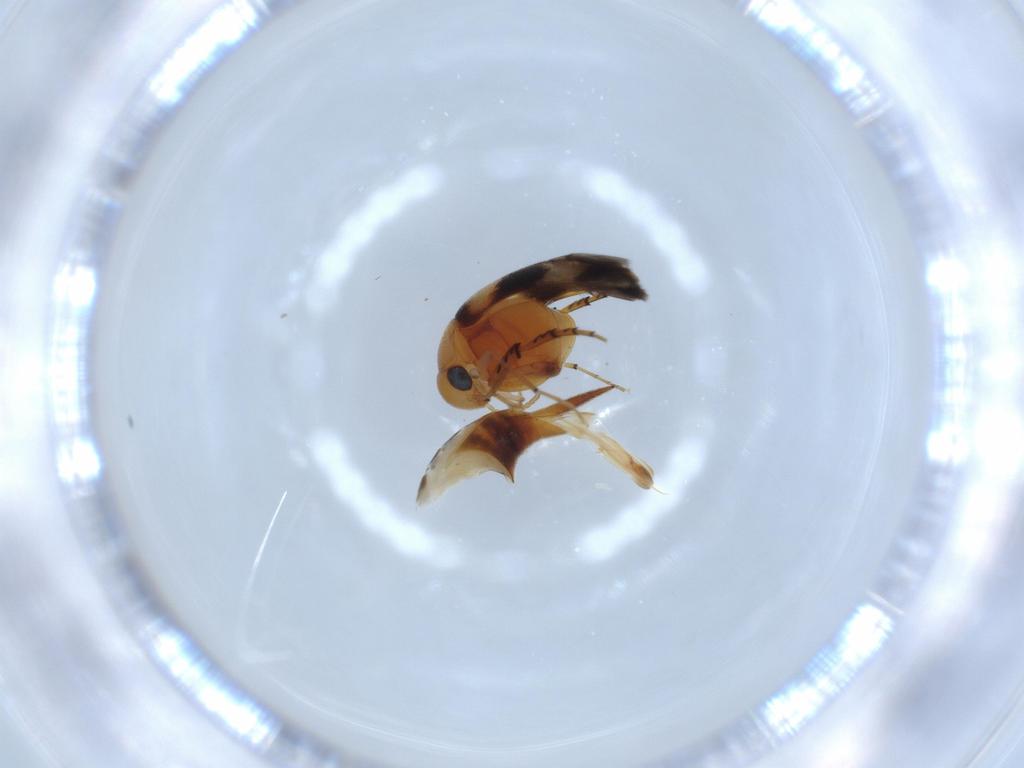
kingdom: Animalia
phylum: Arthropoda
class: Insecta
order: Coleoptera
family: Mordellidae
